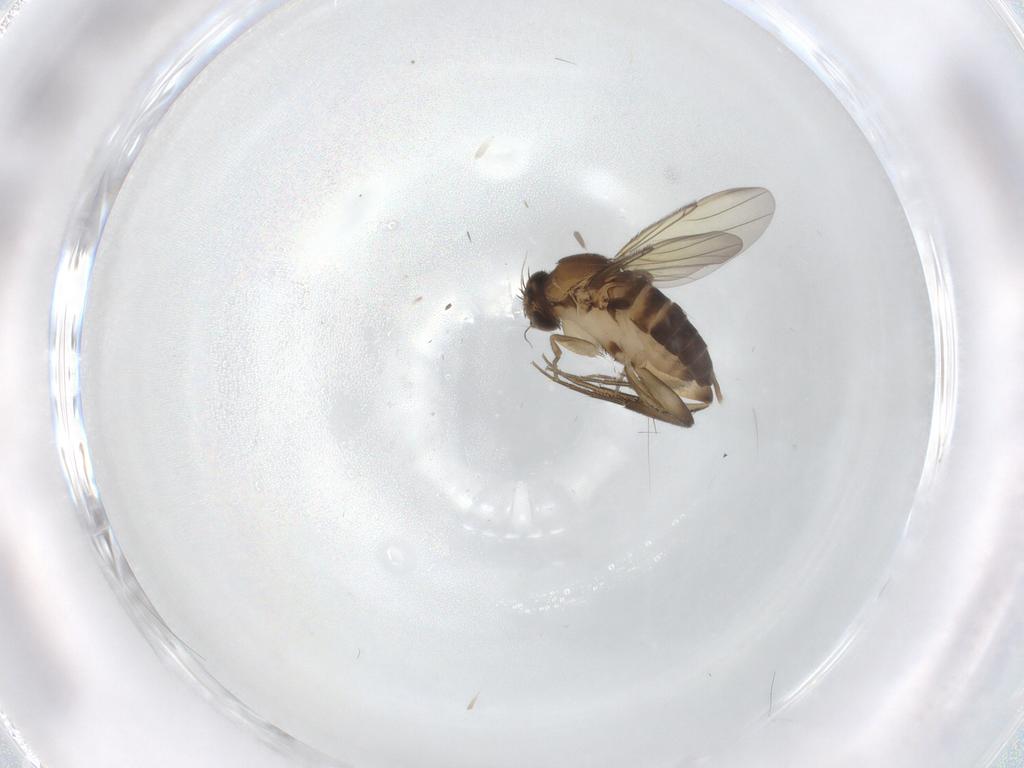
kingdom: Animalia
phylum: Arthropoda
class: Insecta
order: Diptera
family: Phoridae
